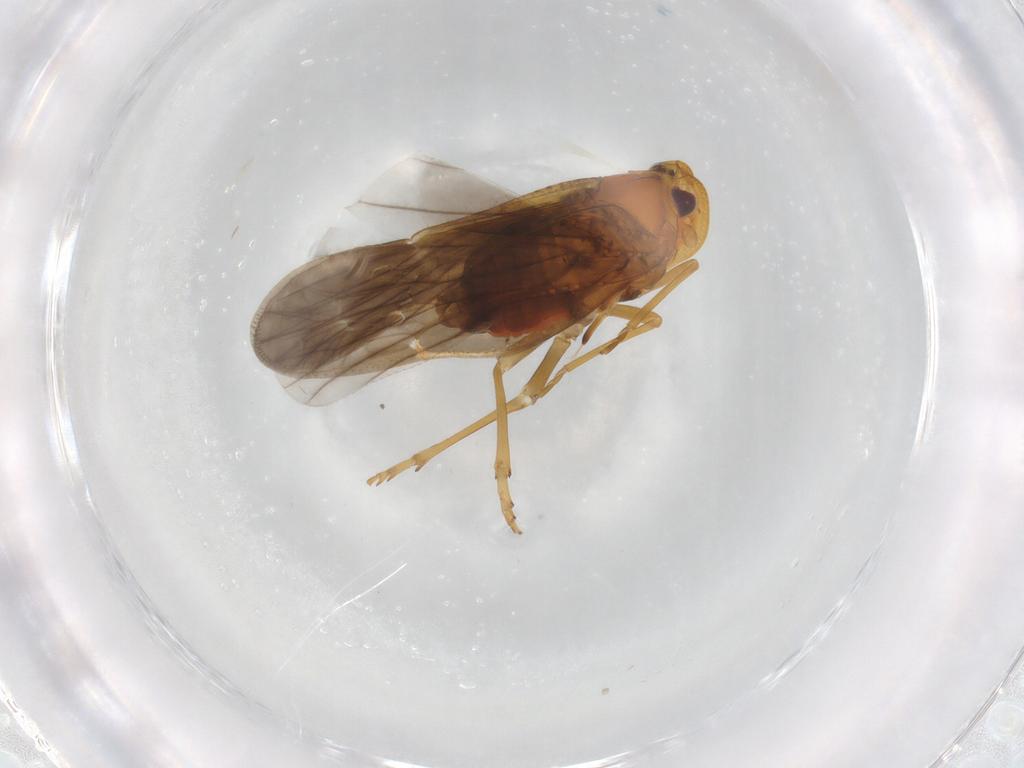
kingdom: Animalia
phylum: Arthropoda
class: Insecta
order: Hemiptera
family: Meenoplidae
